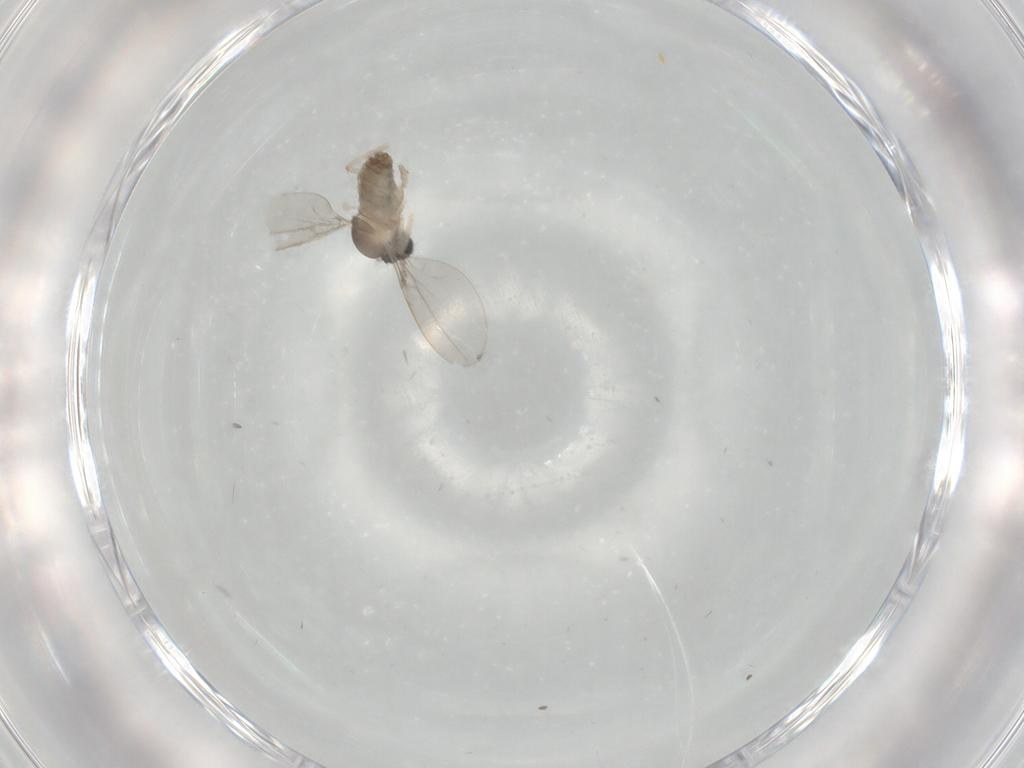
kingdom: Animalia
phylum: Arthropoda
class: Insecta
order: Diptera
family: Cecidomyiidae
